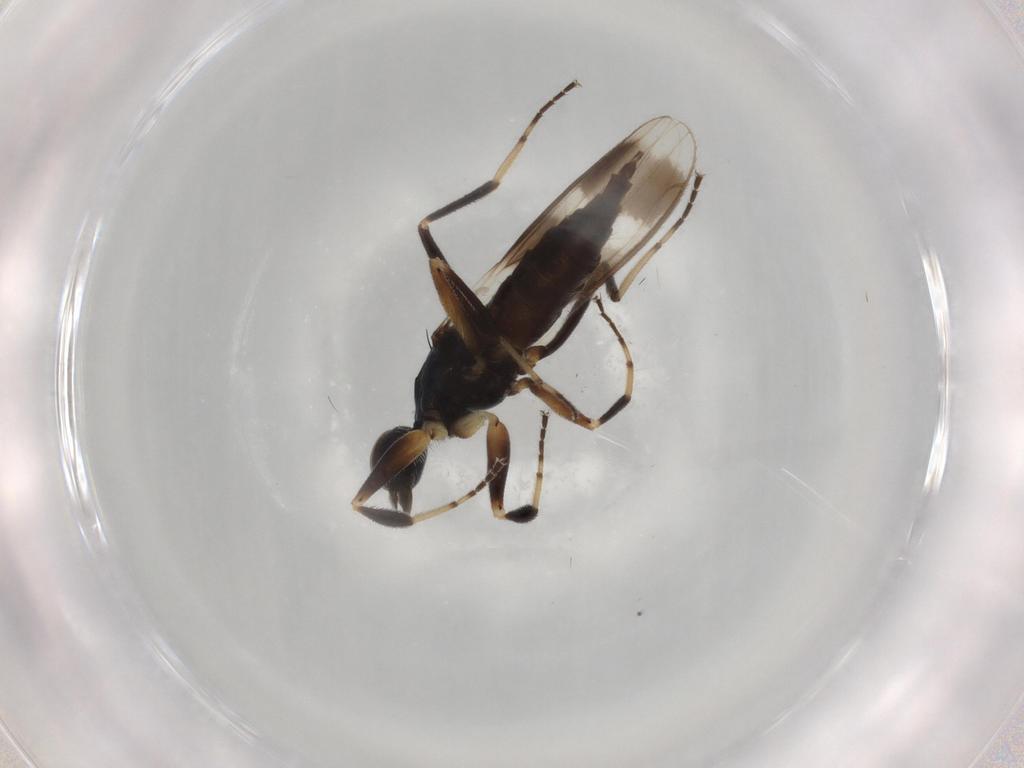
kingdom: Animalia
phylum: Arthropoda
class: Insecta
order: Diptera
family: Hybotidae
